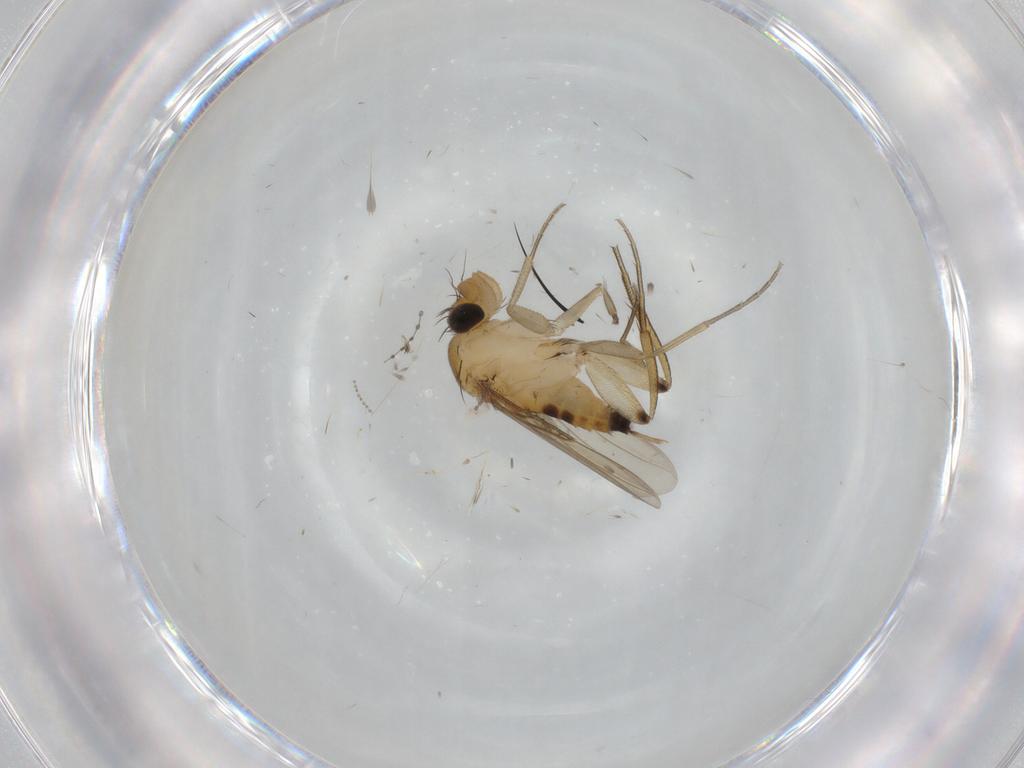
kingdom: Animalia
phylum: Arthropoda
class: Insecta
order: Diptera
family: Phoridae
